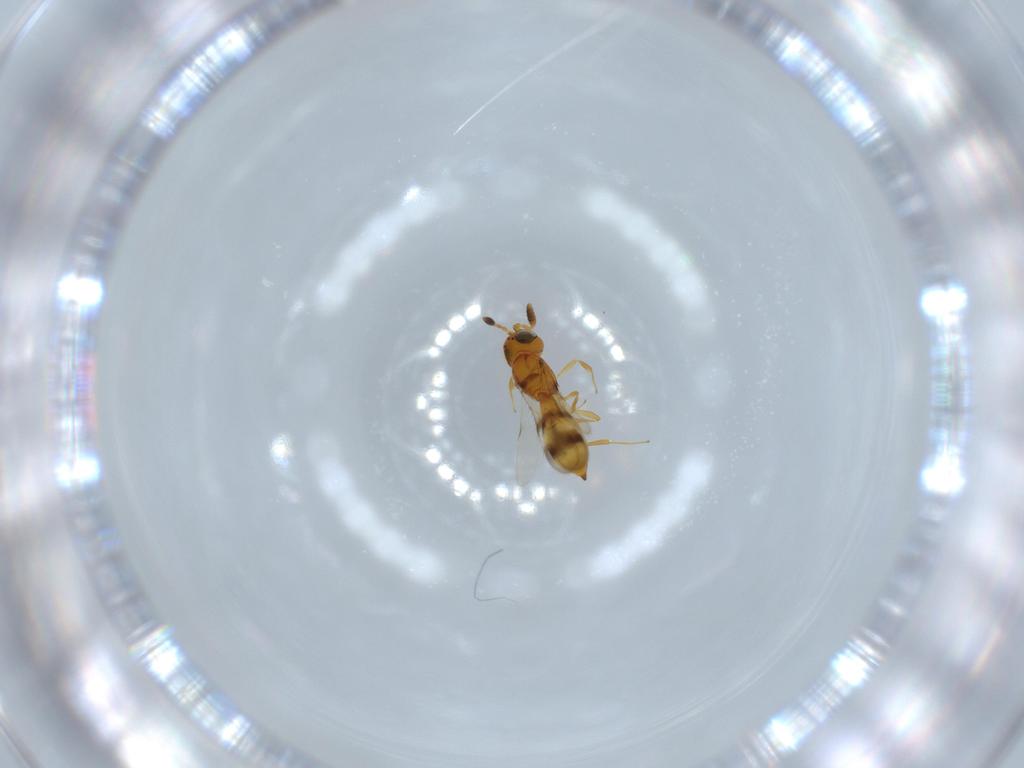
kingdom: Animalia
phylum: Arthropoda
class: Insecta
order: Hymenoptera
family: Scelionidae
